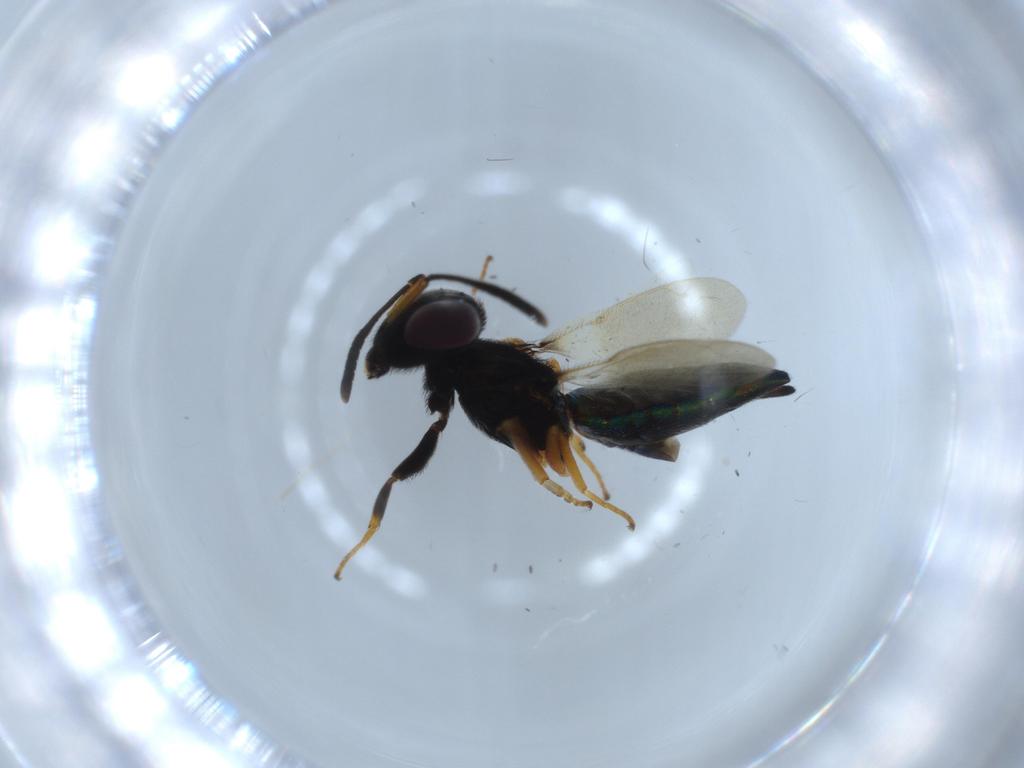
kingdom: Animalia
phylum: Arthropoda
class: Insecta
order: Hymenoptera
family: Eupelmidae
